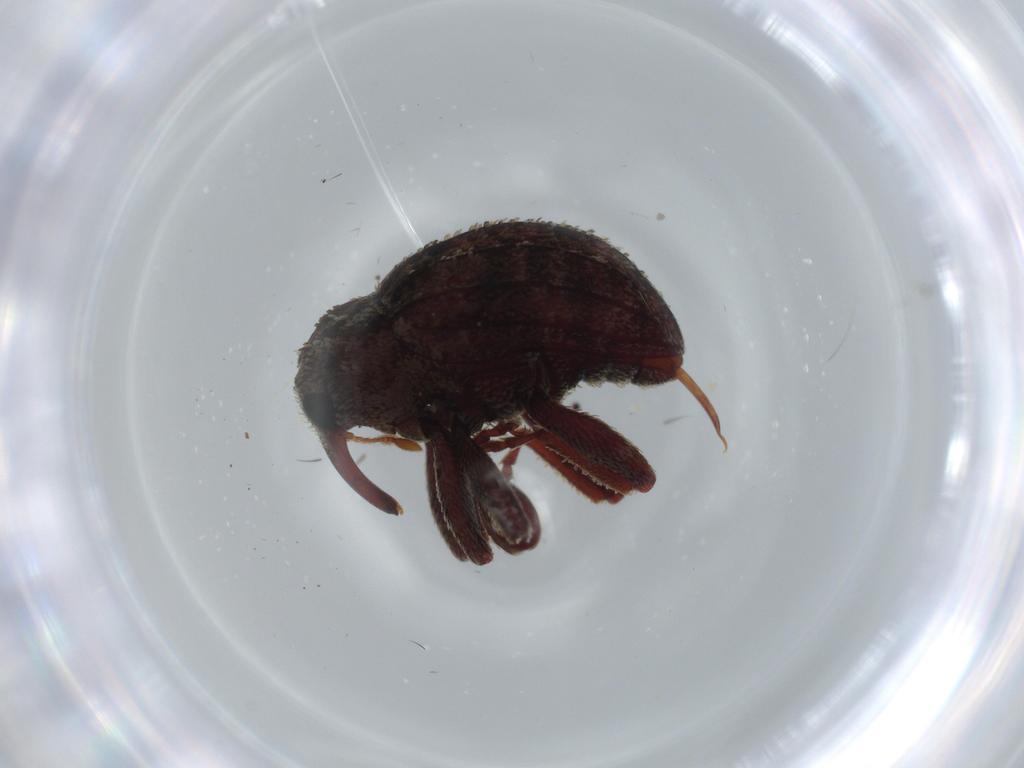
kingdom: Animalia
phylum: Arthropoda
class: Insecta
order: Coleoptera
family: Curculionidae
